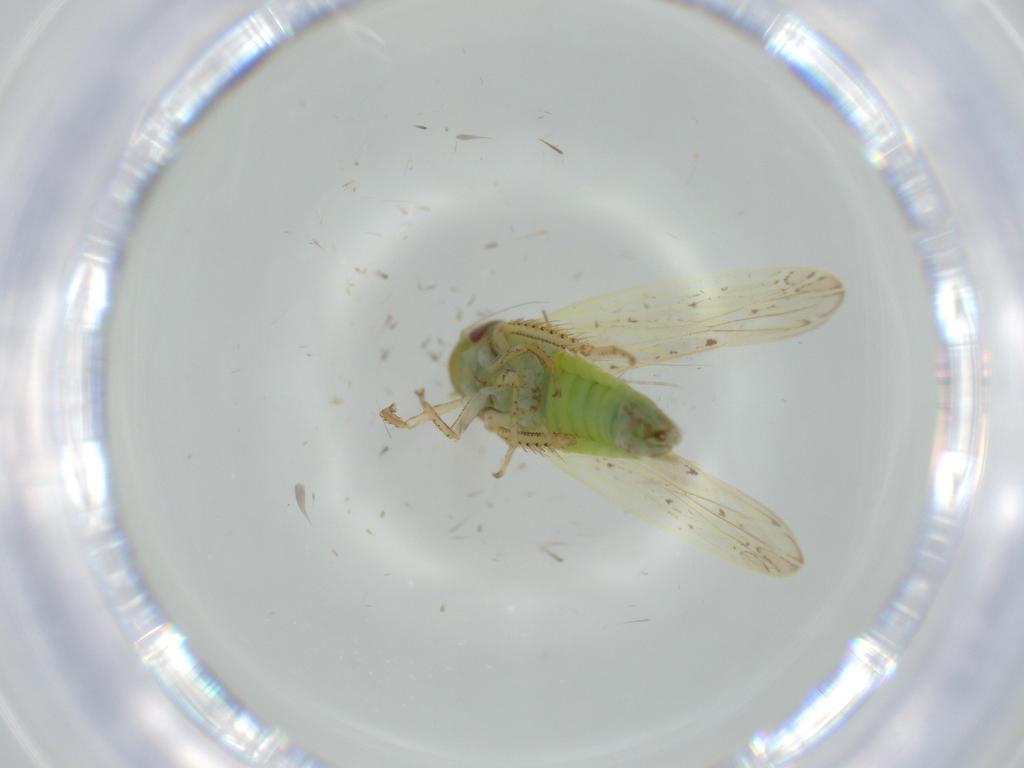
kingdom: Animalia
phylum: Arthropoda
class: Insecta
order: Hemiptera
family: Cicadellidae
